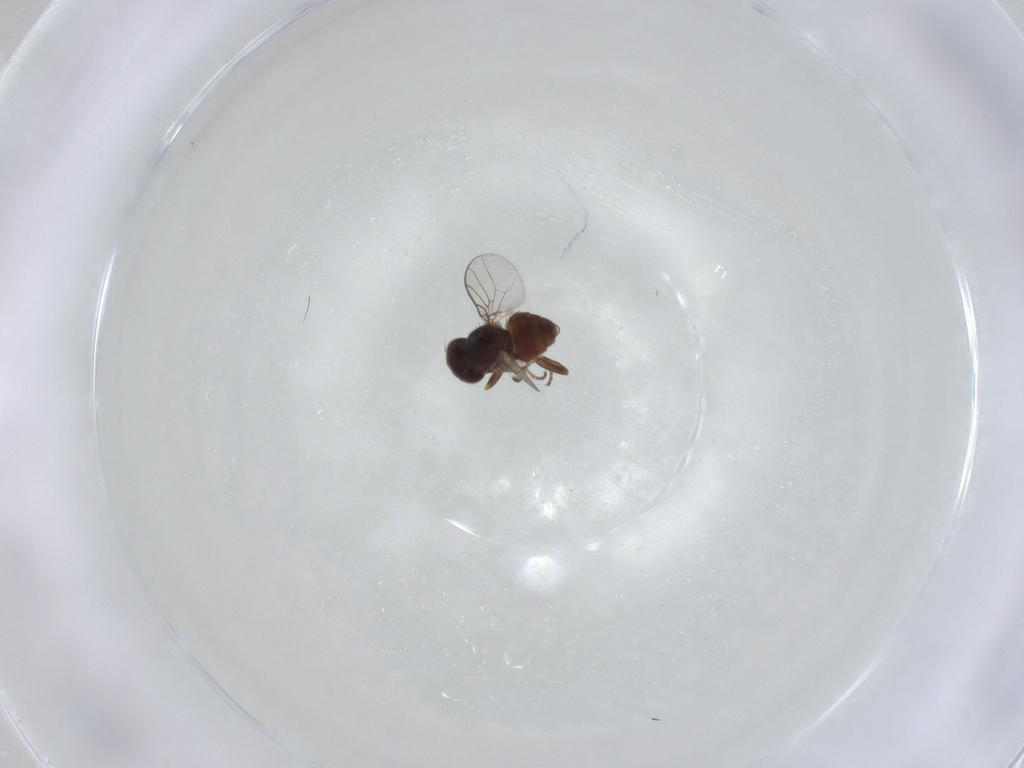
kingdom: Animalia
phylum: Arthropoda
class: Insecta
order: Diptera
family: Chloropidae
